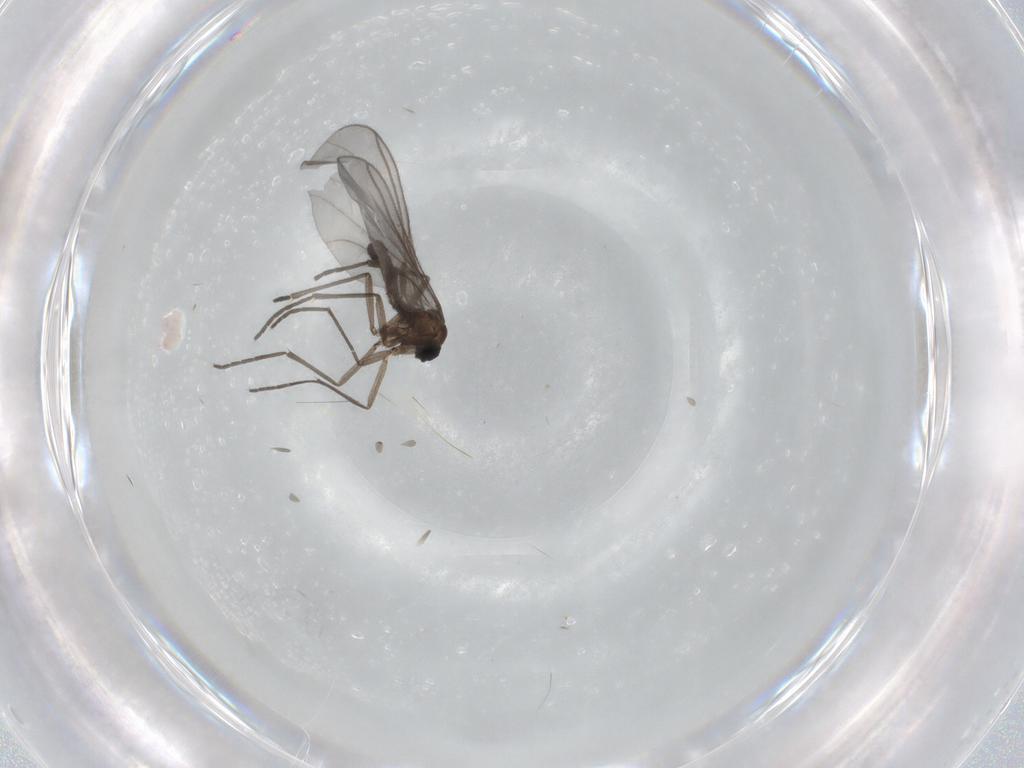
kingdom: Animalia
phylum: Arthropoda
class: Insecta
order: Diptera
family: Sciaridae
